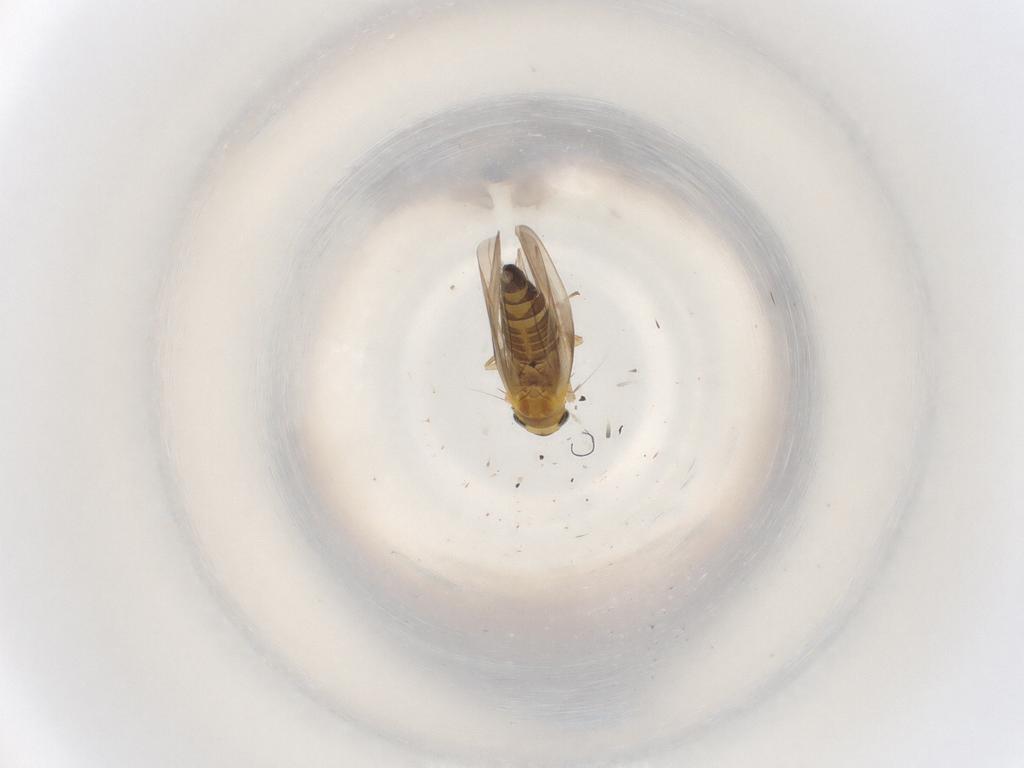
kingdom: Animalia
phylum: Arthropoda
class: Insecta
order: Hemiptera
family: Cicadellidae
